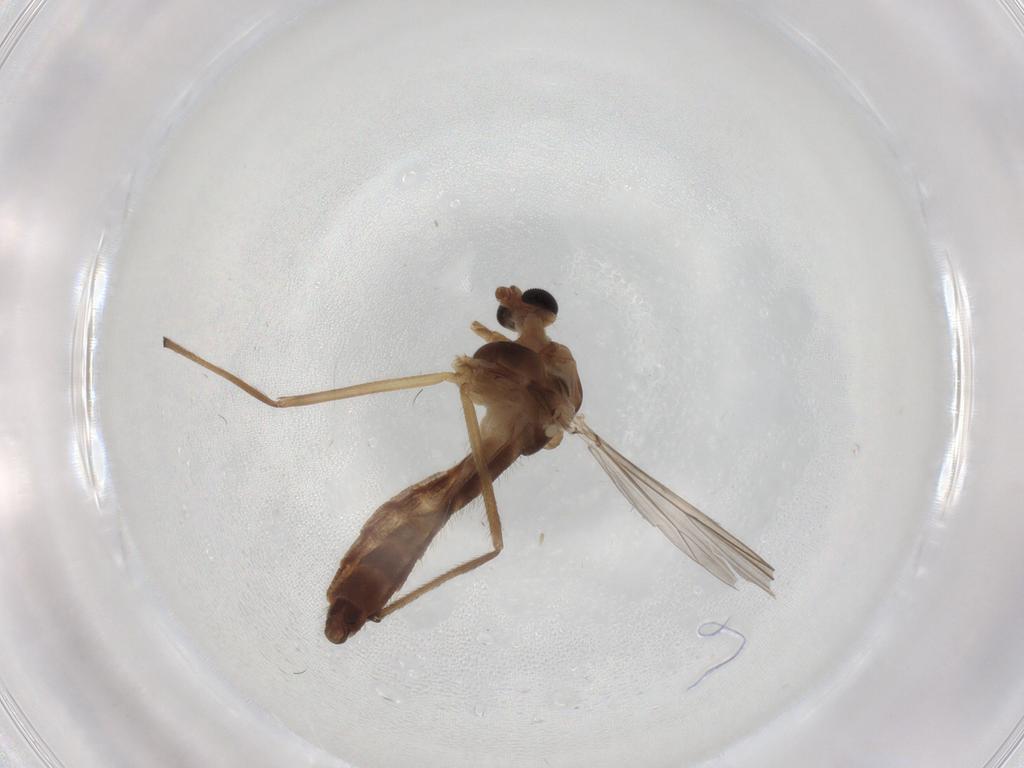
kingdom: Animalia
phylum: Arthropoda
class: Insecta
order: Diptera
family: Chironomidae
